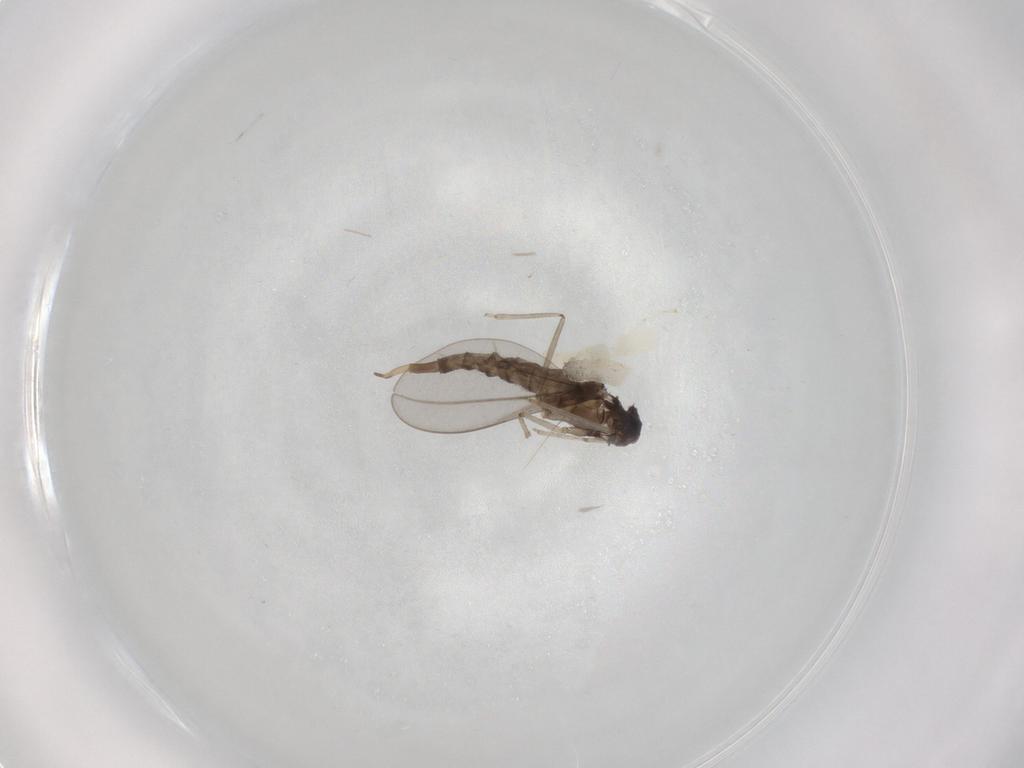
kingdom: Animalia
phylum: Arthropoda
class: Insecta
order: Diptera
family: Chironomidae
